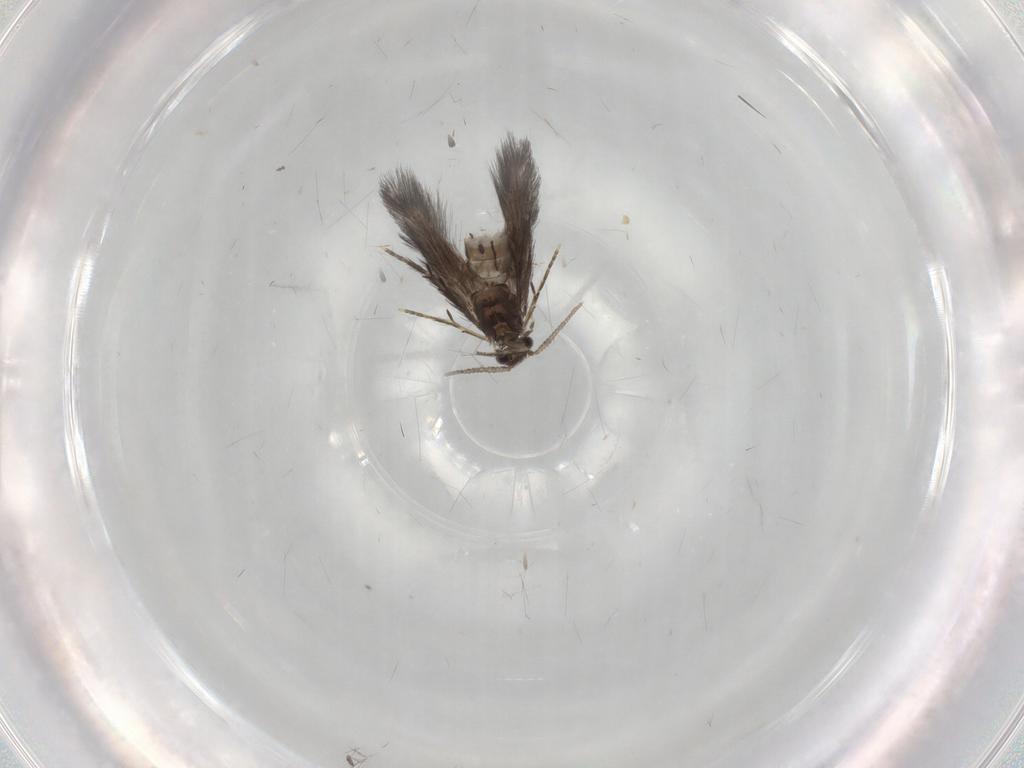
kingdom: Animalia
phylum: Arthropoda
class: Insecta
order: Trichoptera
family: Hydroptilidae
